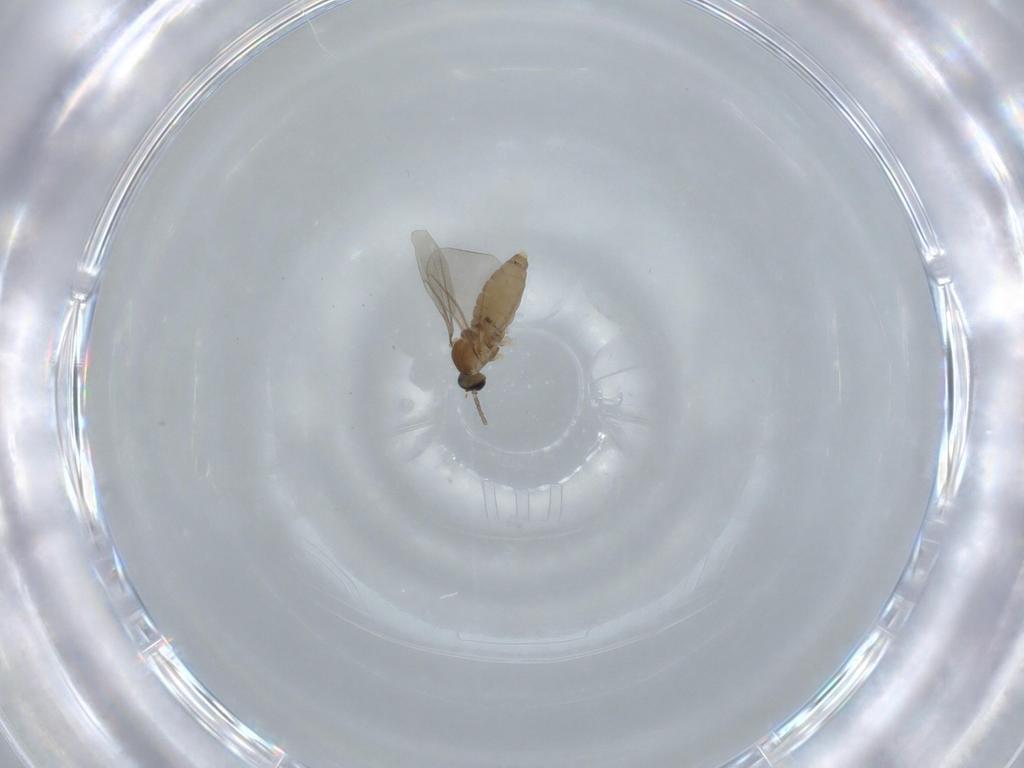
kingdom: Animalia
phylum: Arthropoda
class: Insecta
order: Diptera
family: Cecidomyiidae
